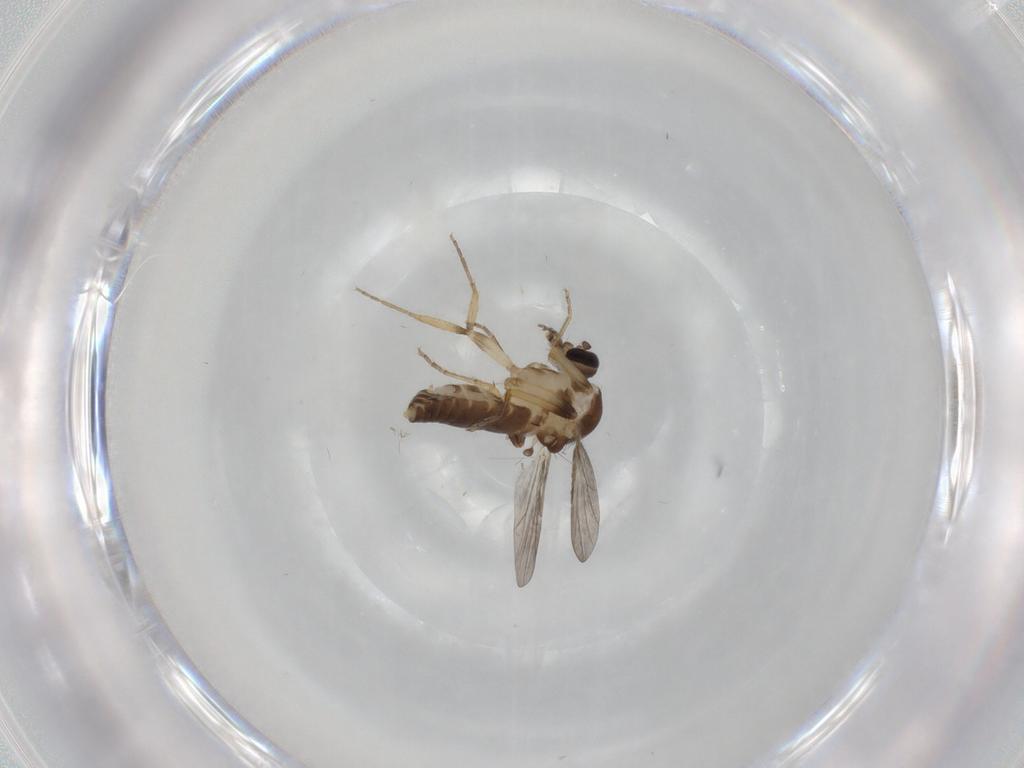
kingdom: Animalia
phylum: Arthropoda
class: Insecta
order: Diptera
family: Ceratopogonidae
